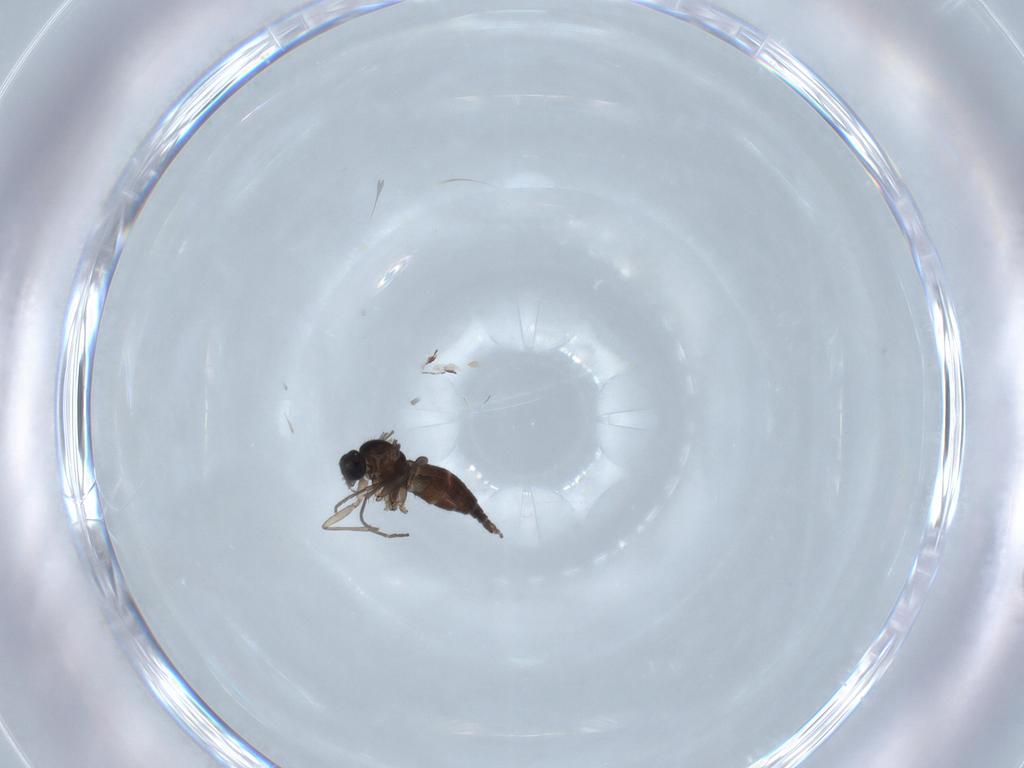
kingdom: Animalia
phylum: Arthropoda
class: Insecta
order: Diptera
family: Sciaridae
